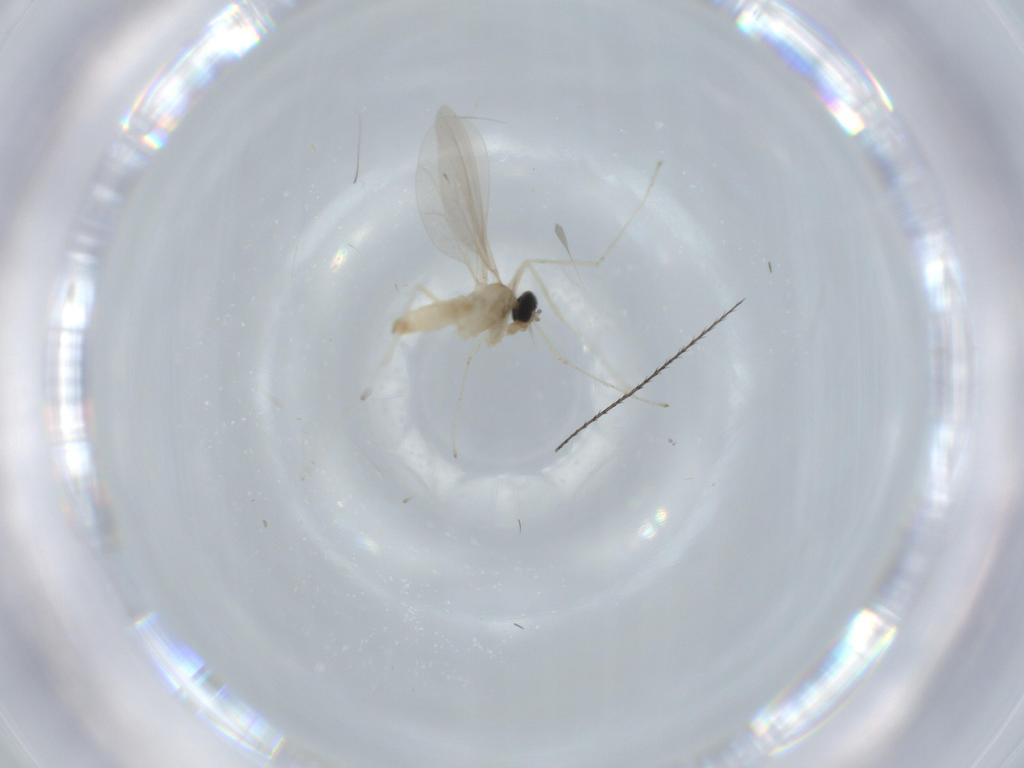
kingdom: Animalia
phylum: Arthropoda
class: Insecta
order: Diptera
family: Cecidomyiidae
